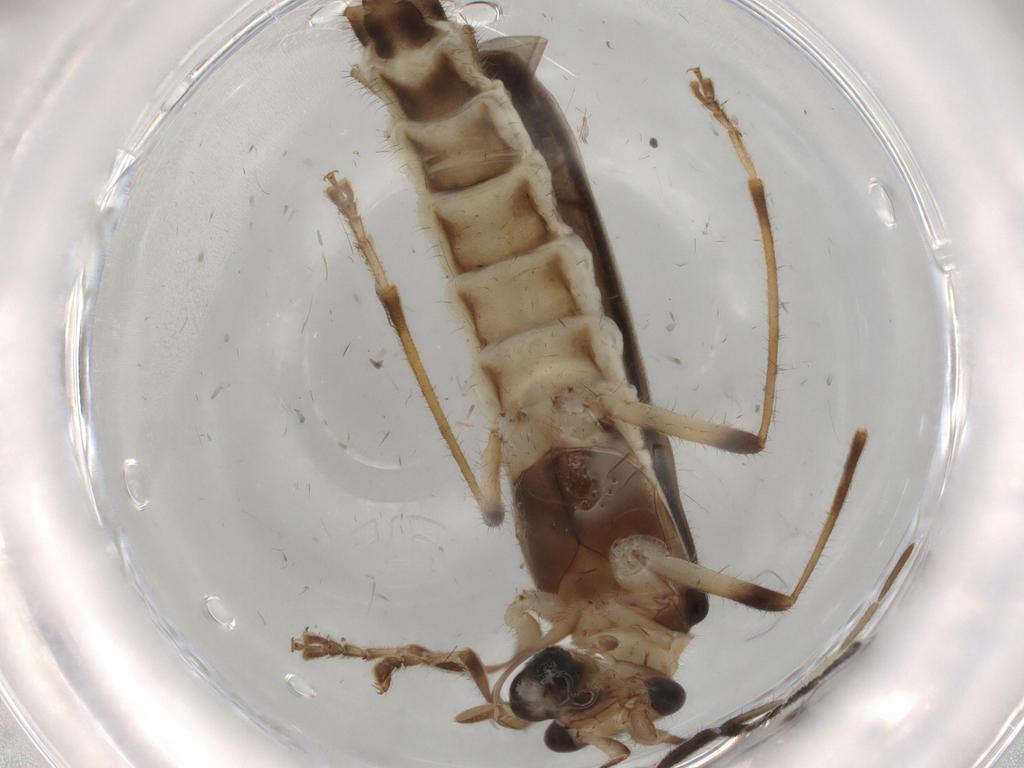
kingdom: Animalia
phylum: Arthropoda
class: Insecta
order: Coleoptera
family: Cantharidae
